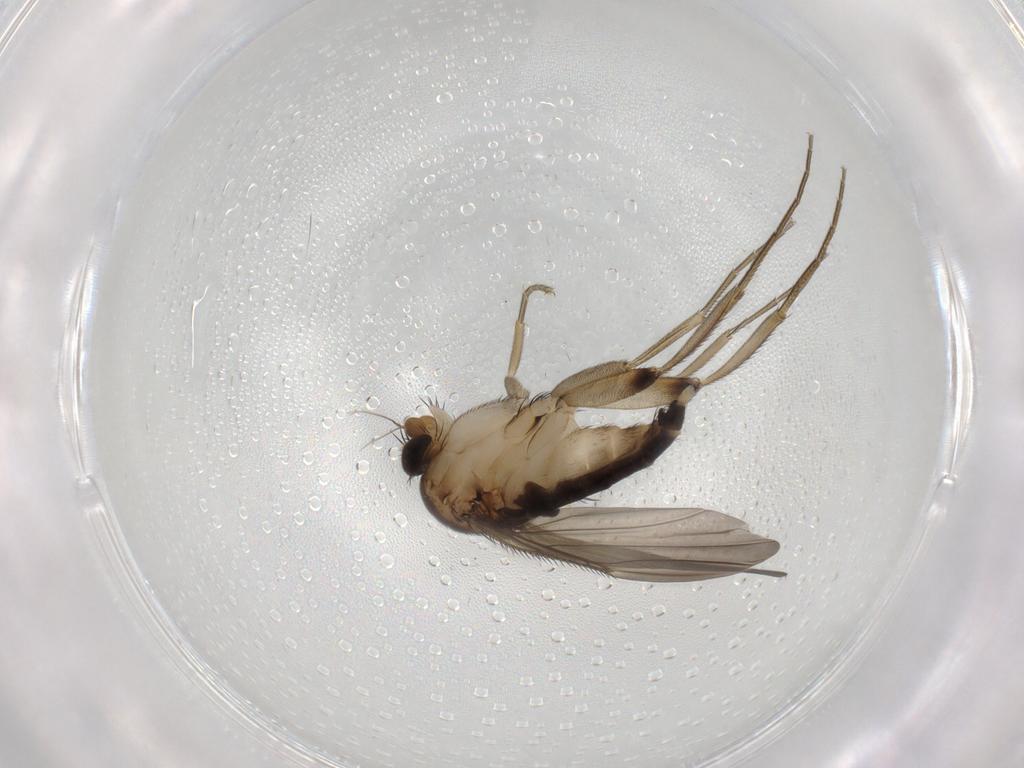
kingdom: Animalia
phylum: Arthropoda
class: Insecta
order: Diptera
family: Phoridae
